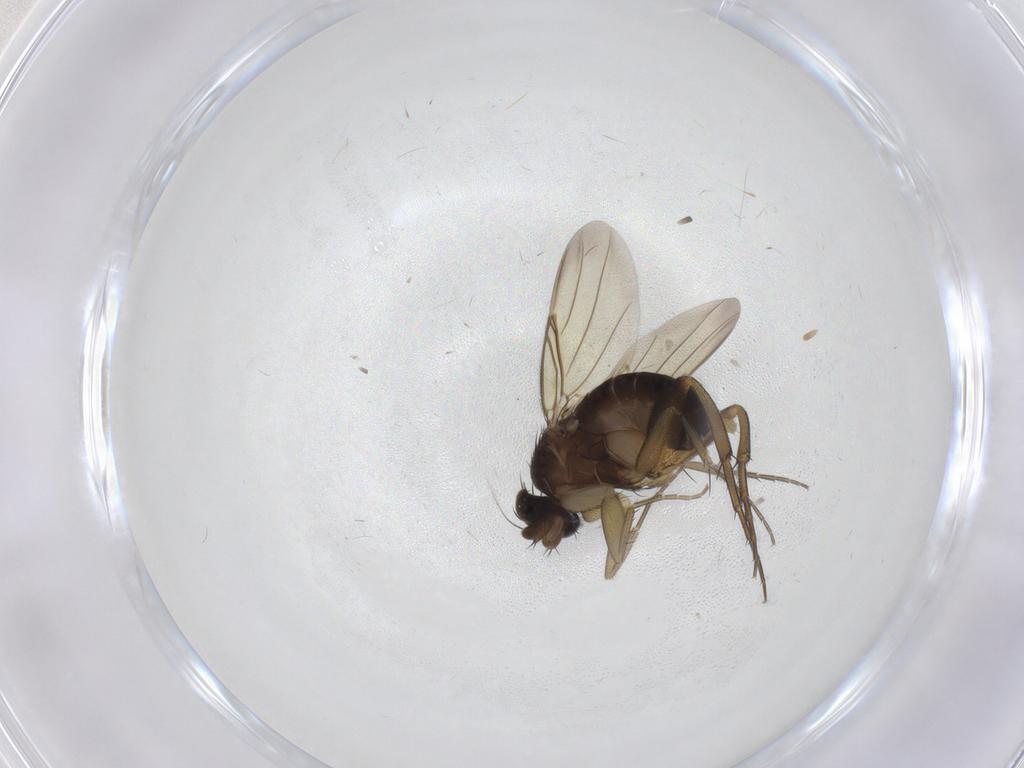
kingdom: Animalia
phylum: Arthropoda
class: Insecta
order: Diptera
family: Phoridae
